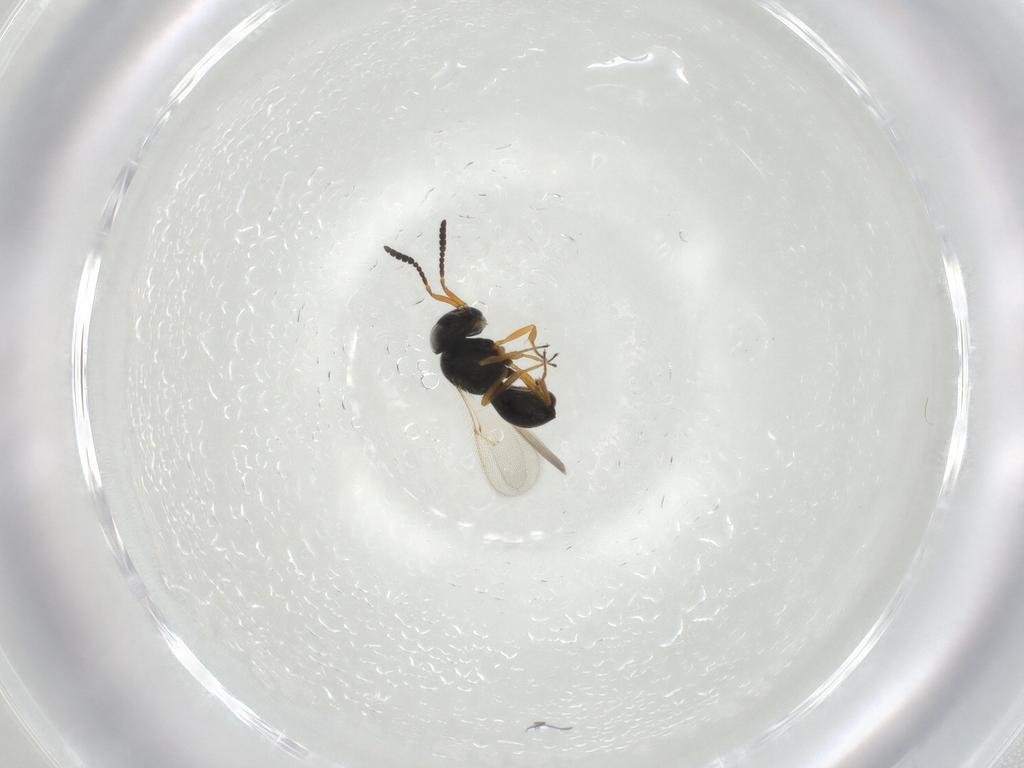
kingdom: Animalia
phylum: Arthropoda
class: Insecta
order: Hymenoptera
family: Scelionidae
